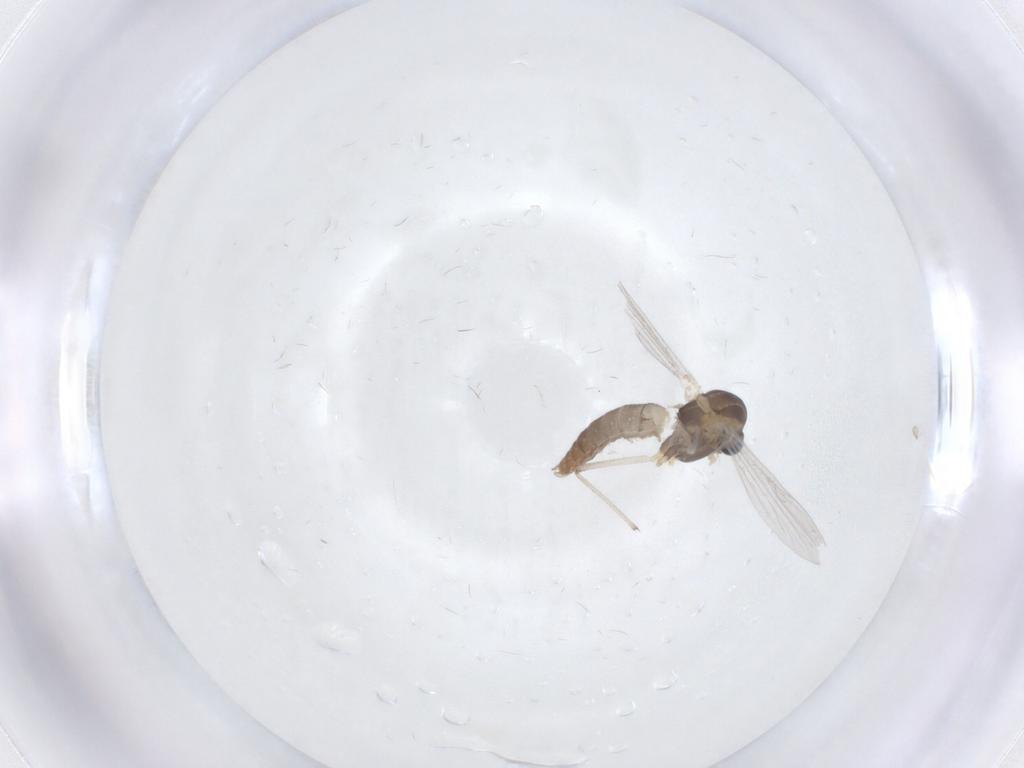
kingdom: Animalia
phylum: Arthropoda
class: Insecta
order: Diptera
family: Chironomidae
